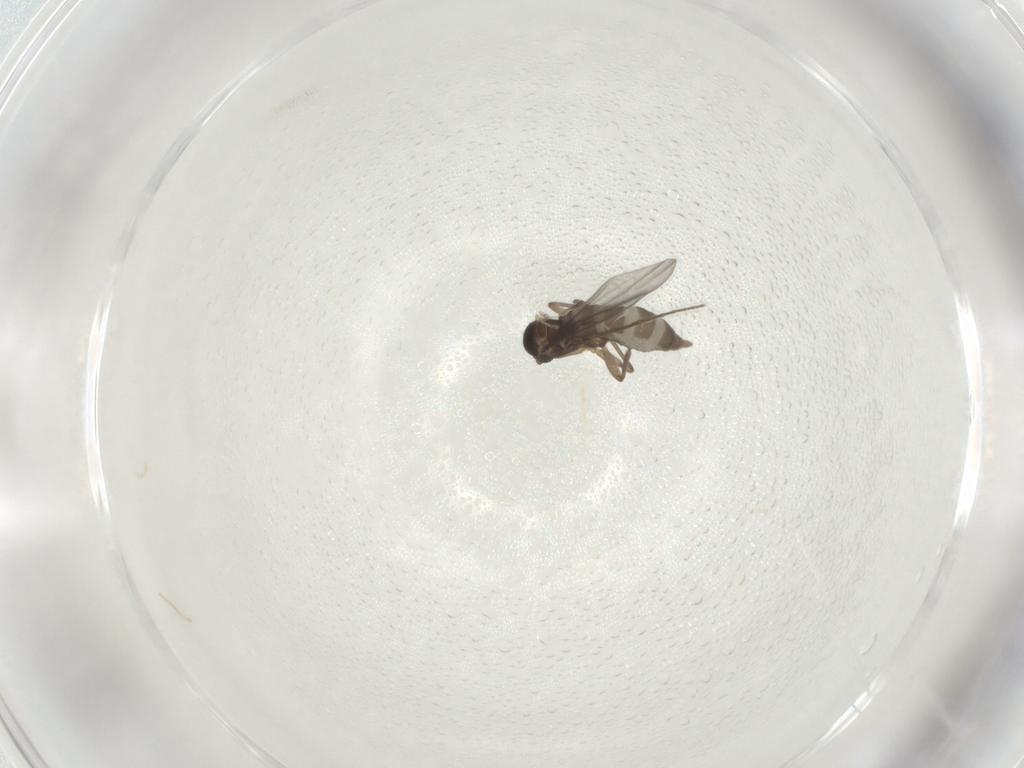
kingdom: Animalia
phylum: Arthropoda
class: Insecta
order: Diptera
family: Sciaridae
